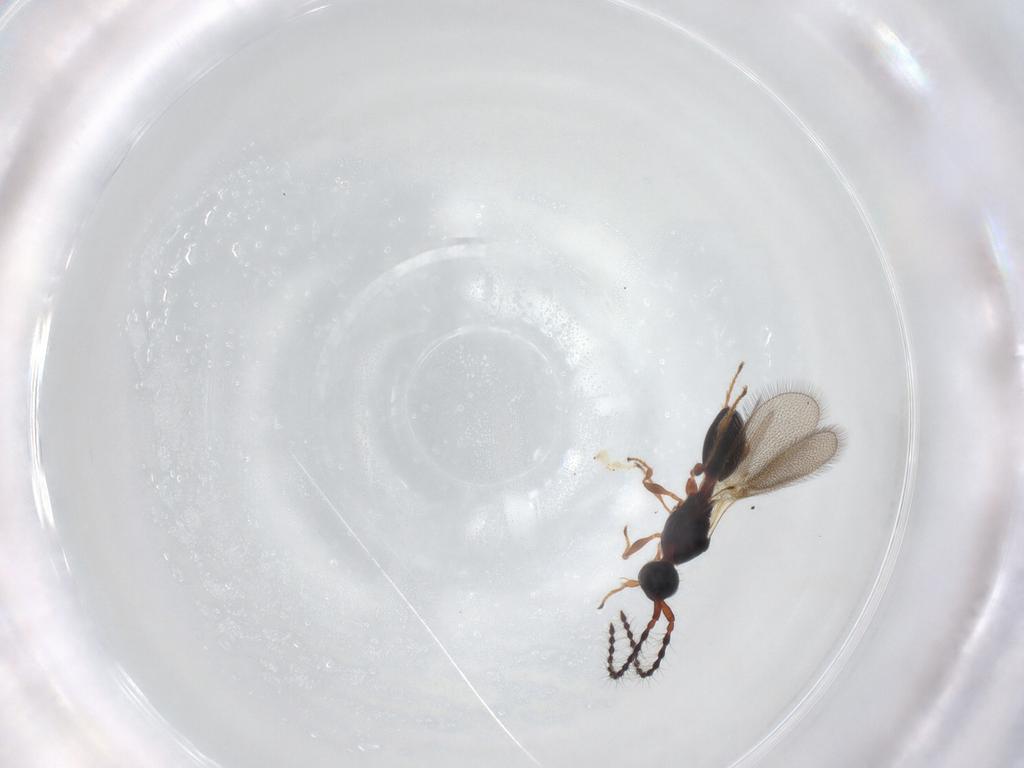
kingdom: Animalia
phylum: Arthropoda
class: Insecta
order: Hymenoptera
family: Diapriidae
